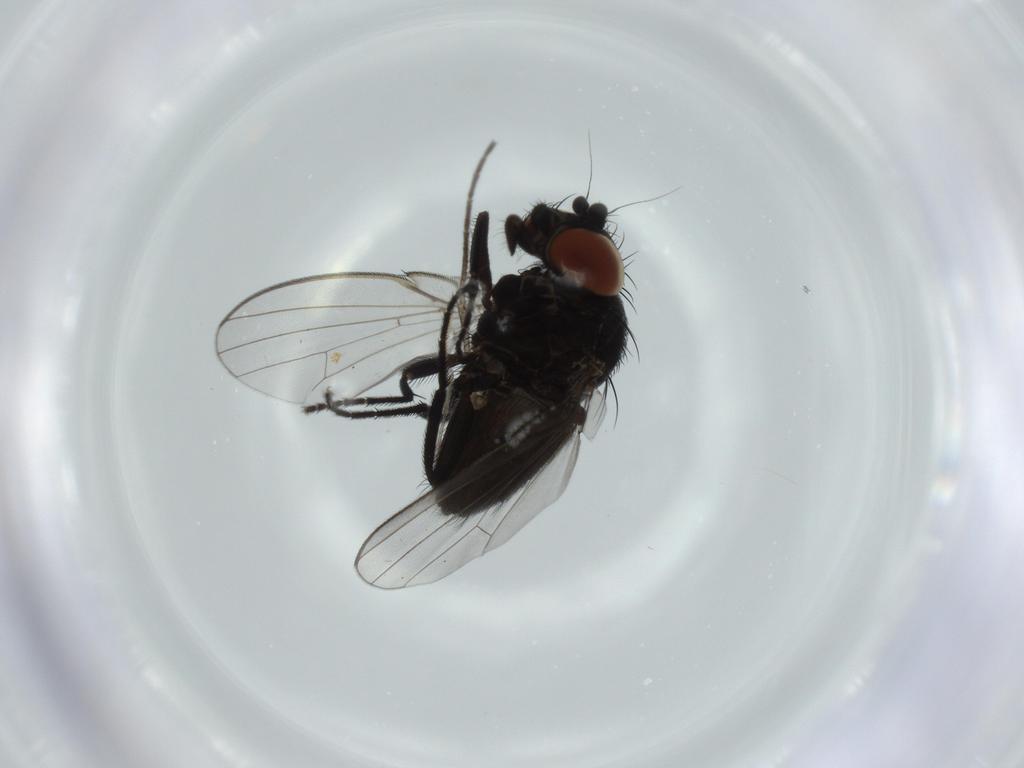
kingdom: Animalia
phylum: Arthropoda
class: Insecta
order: Diptera
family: Milichiidae
